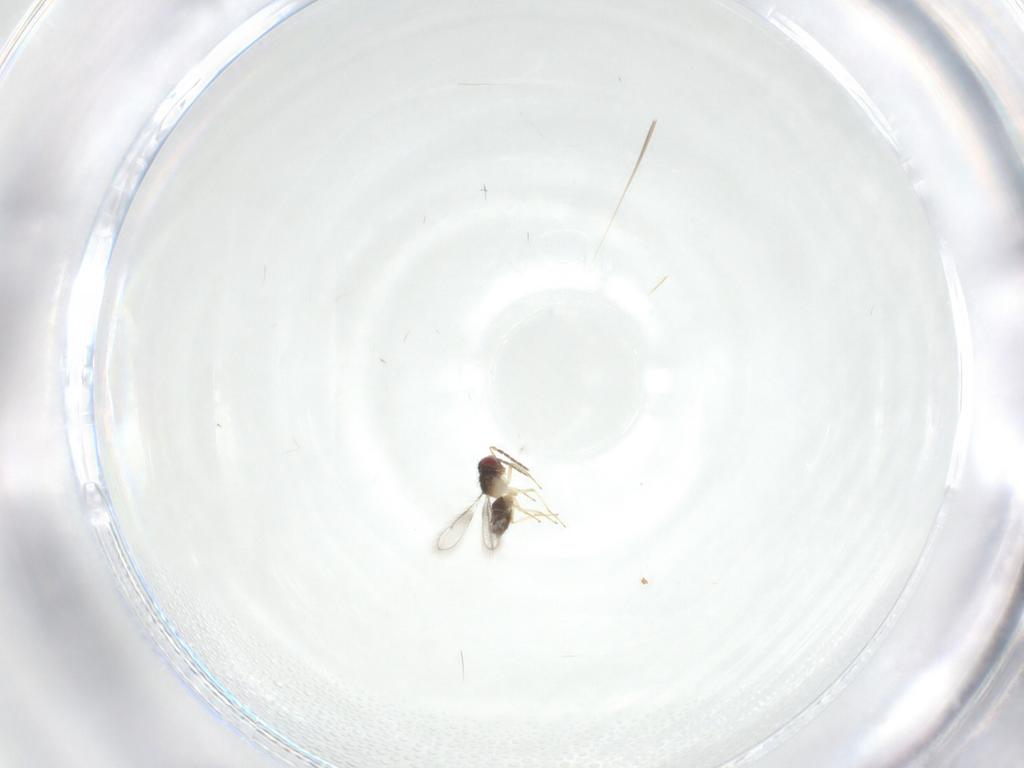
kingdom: Animalia
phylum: Arthropoda
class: Insecta
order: Hymenoptera
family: Eulophidae
